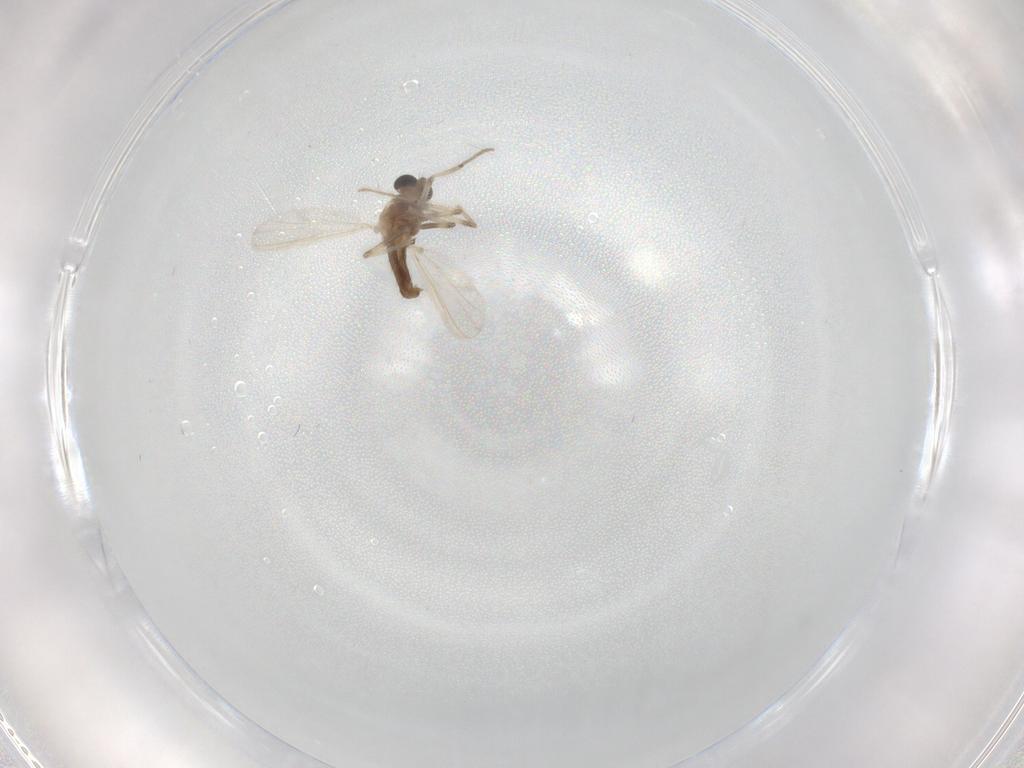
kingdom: Animalia
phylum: Arthropoda
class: Insecta
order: Diptera
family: Chironomidae
